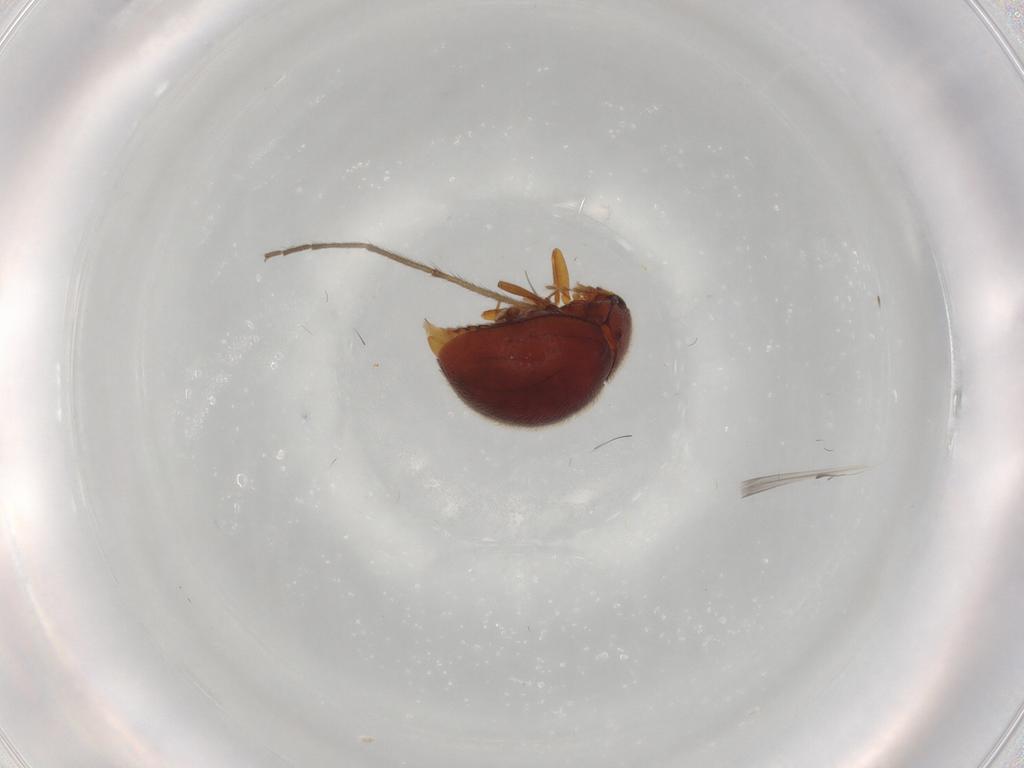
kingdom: Animalia
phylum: Arthropoda
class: Insecta
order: Coleoptera
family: Anamorphidae
